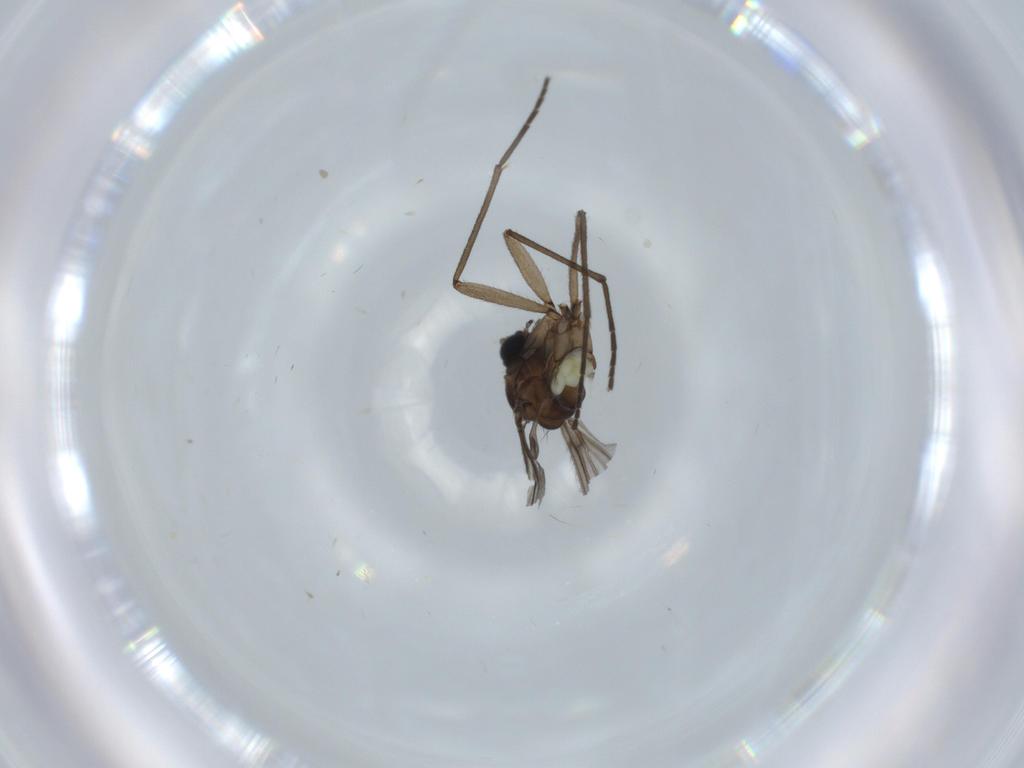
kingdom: Animalia
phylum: Arthropoda
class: Insecta
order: Diptera
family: Sciaridae
